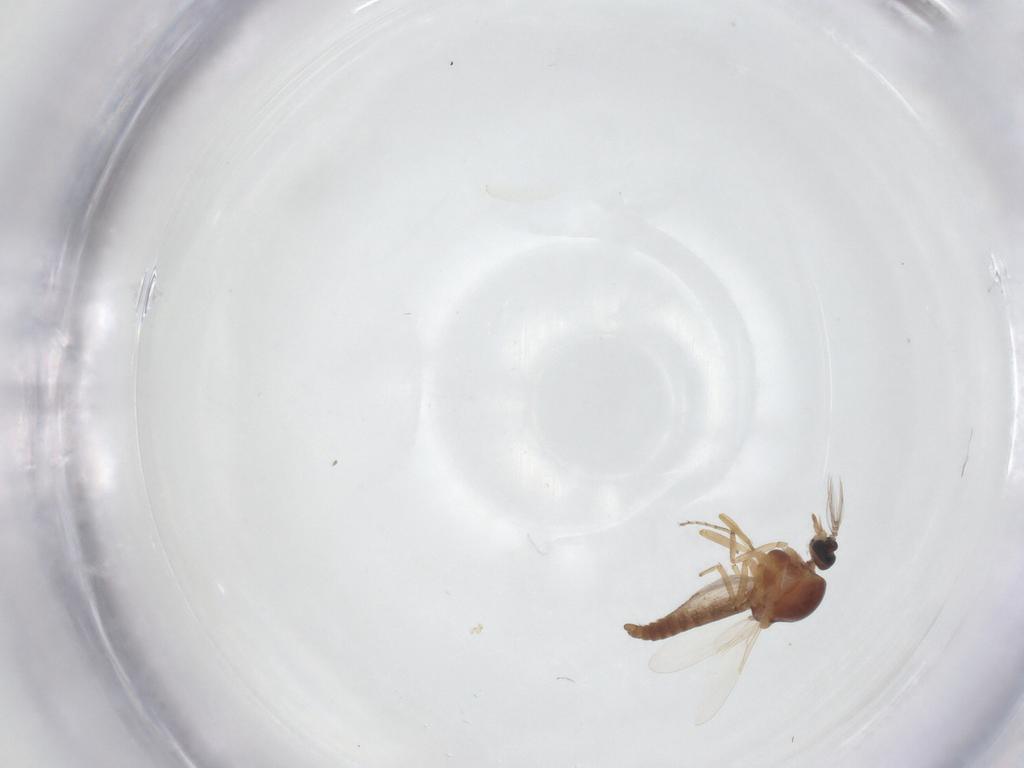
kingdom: Animalia
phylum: Arthropoda
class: Insecta
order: Diptera
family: Ceratopogonidae
